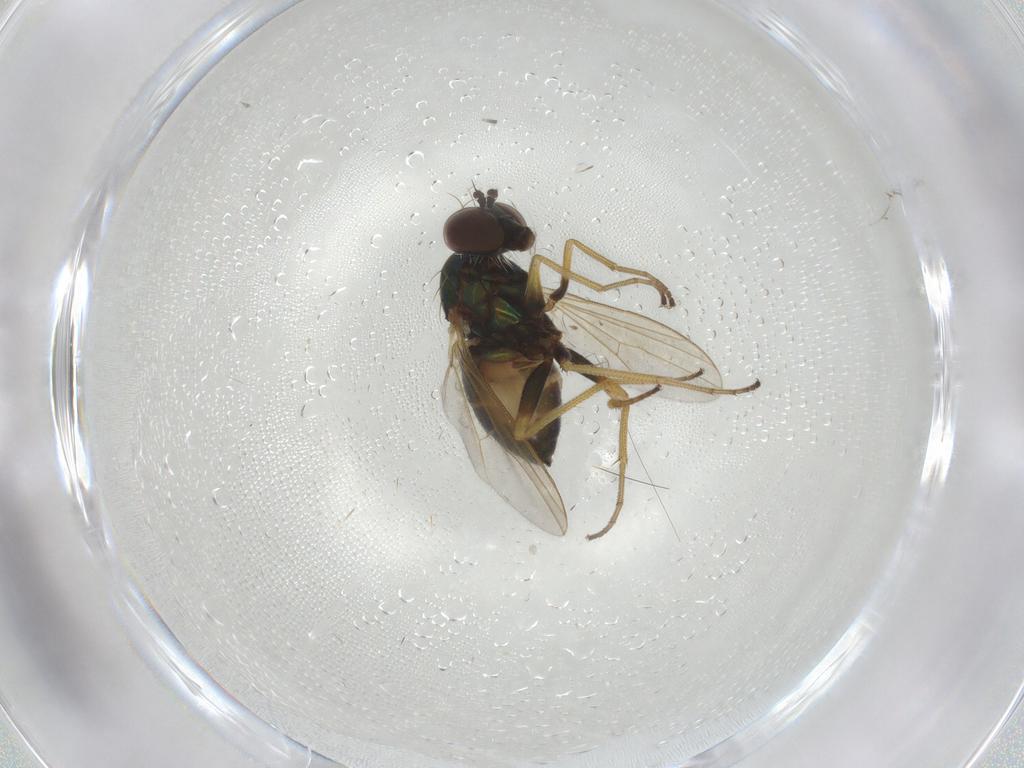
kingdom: Animalia
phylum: Arthropoda
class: Insecta
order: Diptera
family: Dolichopodidae
